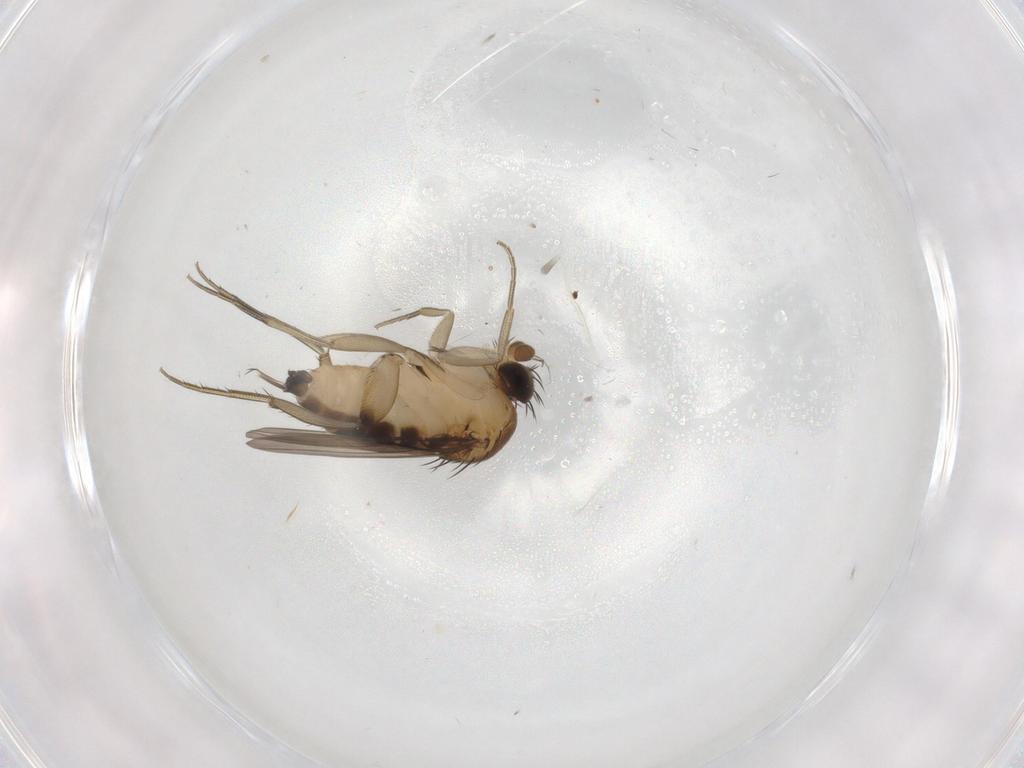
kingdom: Animalia
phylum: Arthropoda
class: Insecta
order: Diptera
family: Phoridae
